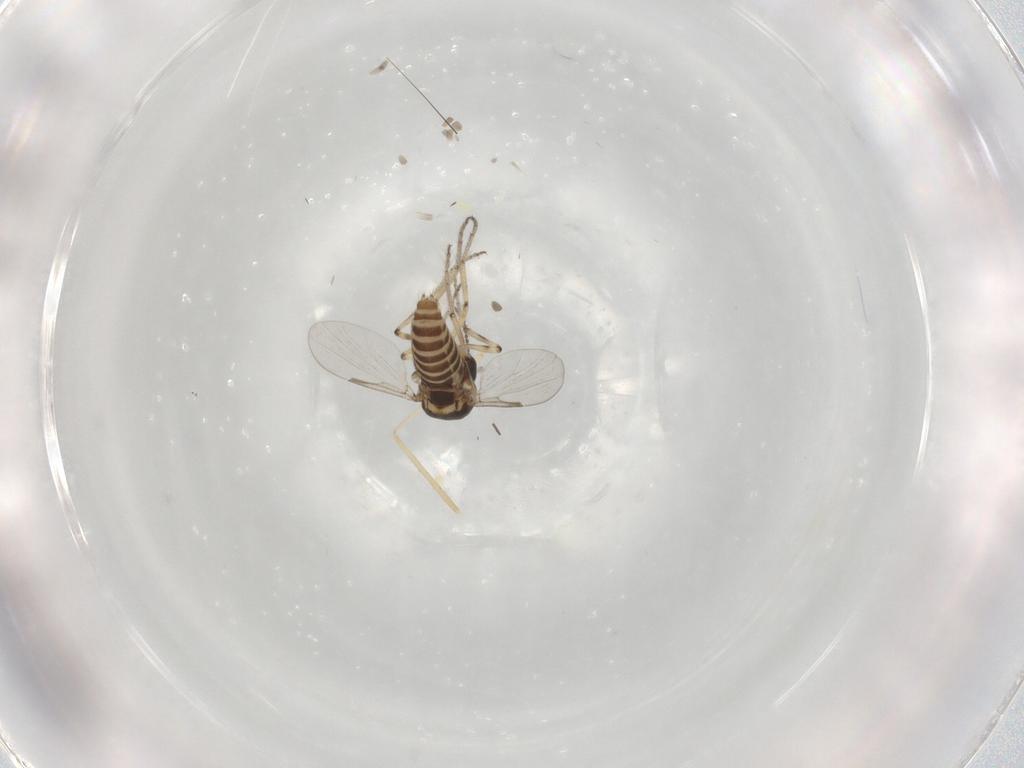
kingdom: Animalia
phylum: Arthropoda
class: Insecta
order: Diptera
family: Ceratopogonidae
